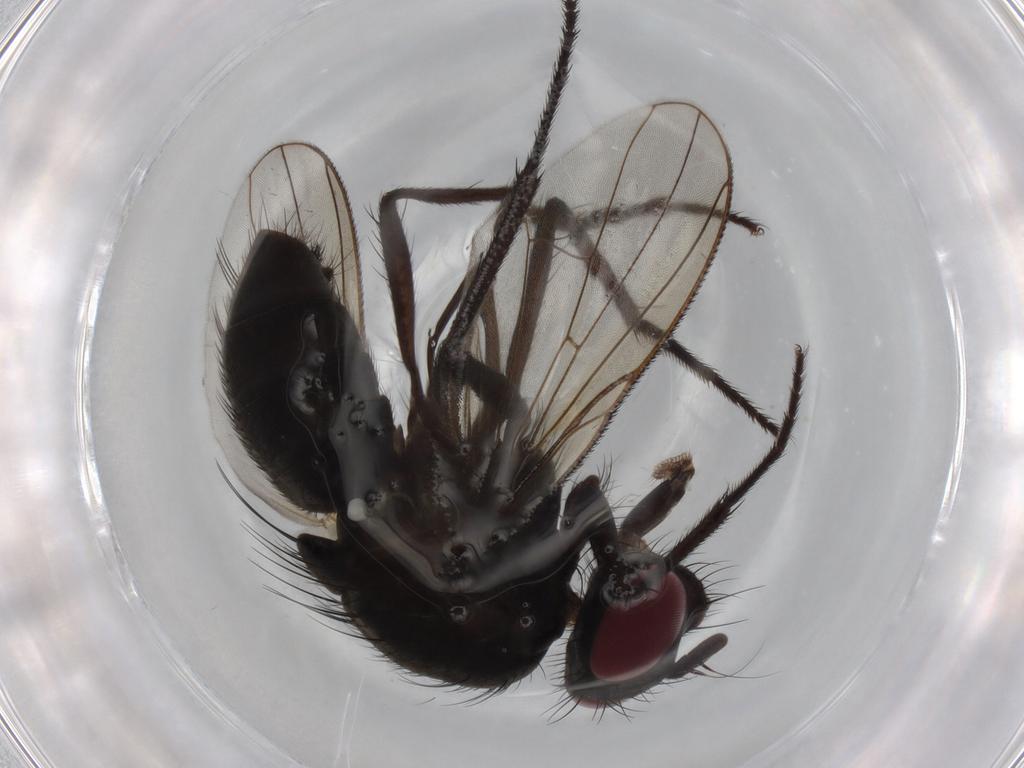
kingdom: Animalia
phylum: Arthropoda
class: Insecta
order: Diptera
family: Muscidae
